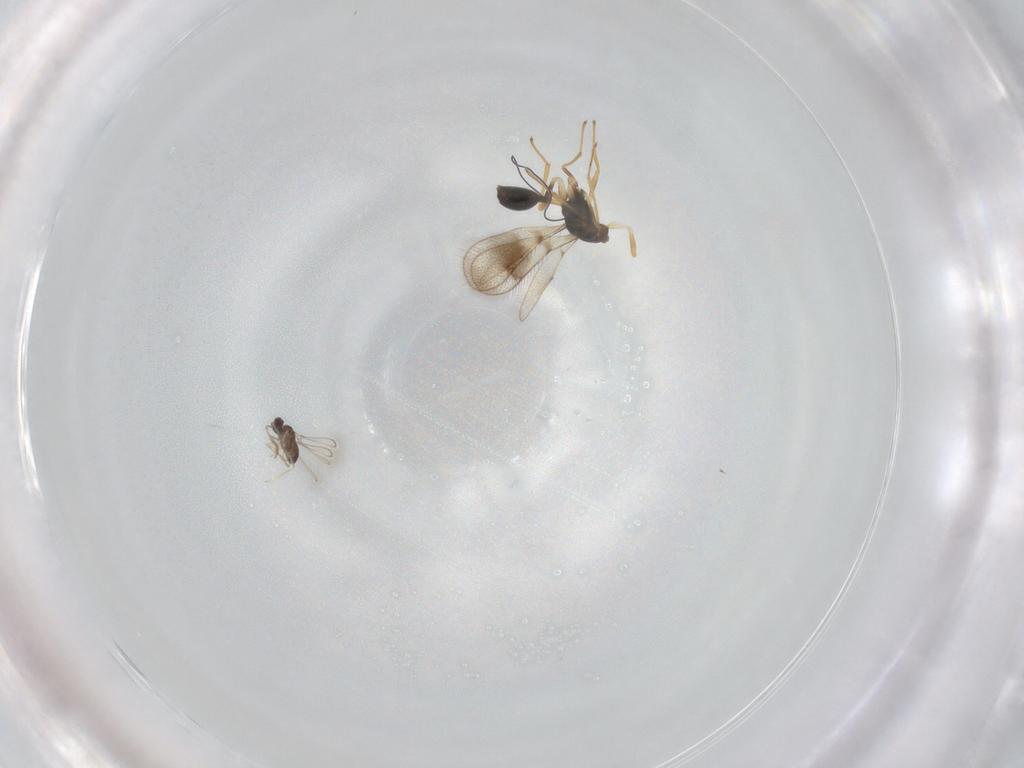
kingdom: Animalia
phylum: Arthropoda
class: Insecta
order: Hymenoptera
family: Diparidae
